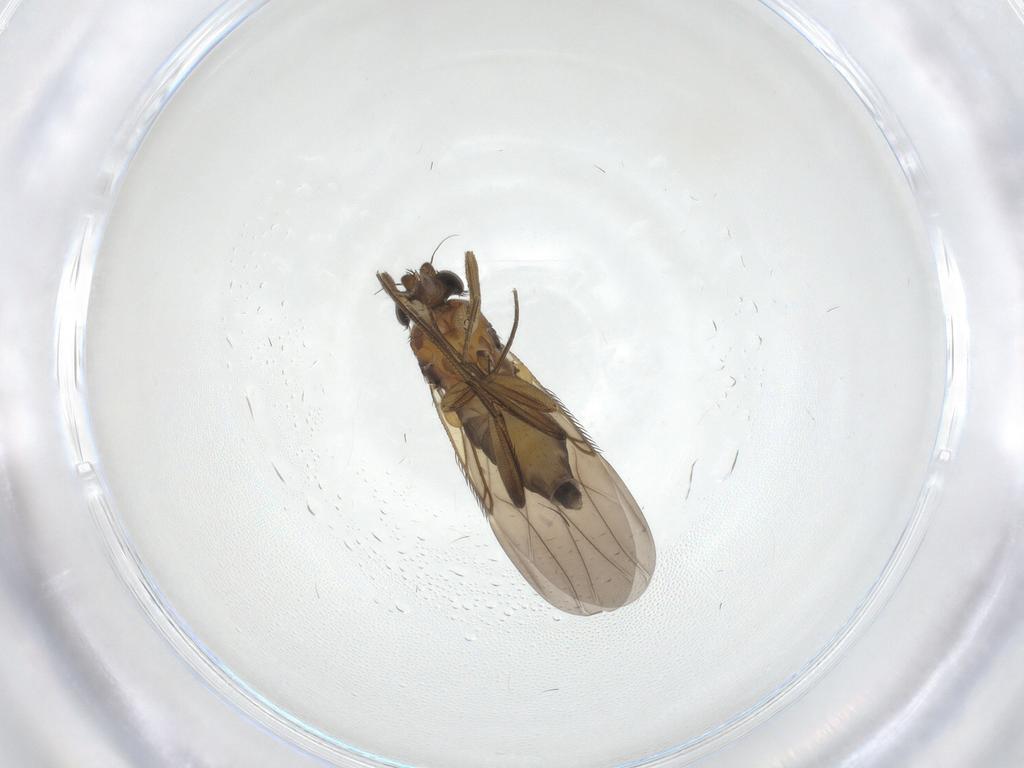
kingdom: Animalia
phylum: Arthropoda
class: Insecta
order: Diptera
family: Phoridae
